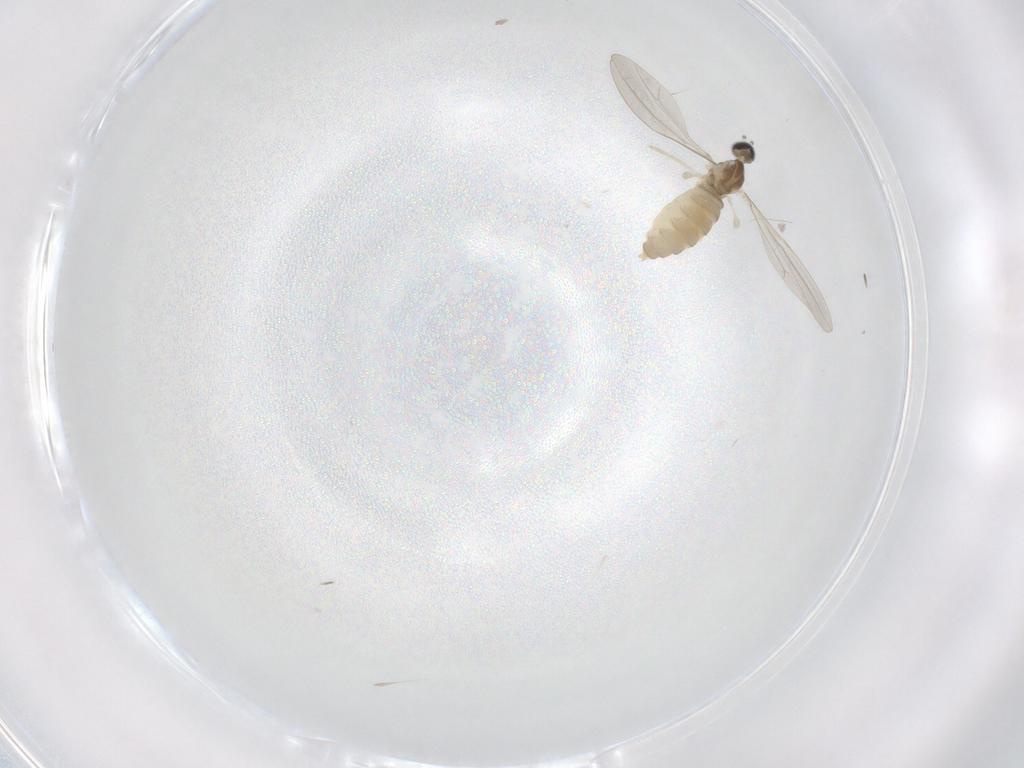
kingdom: Animalia
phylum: Arthropoda
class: Insecta
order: Diptera
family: Cecidomyiidae
